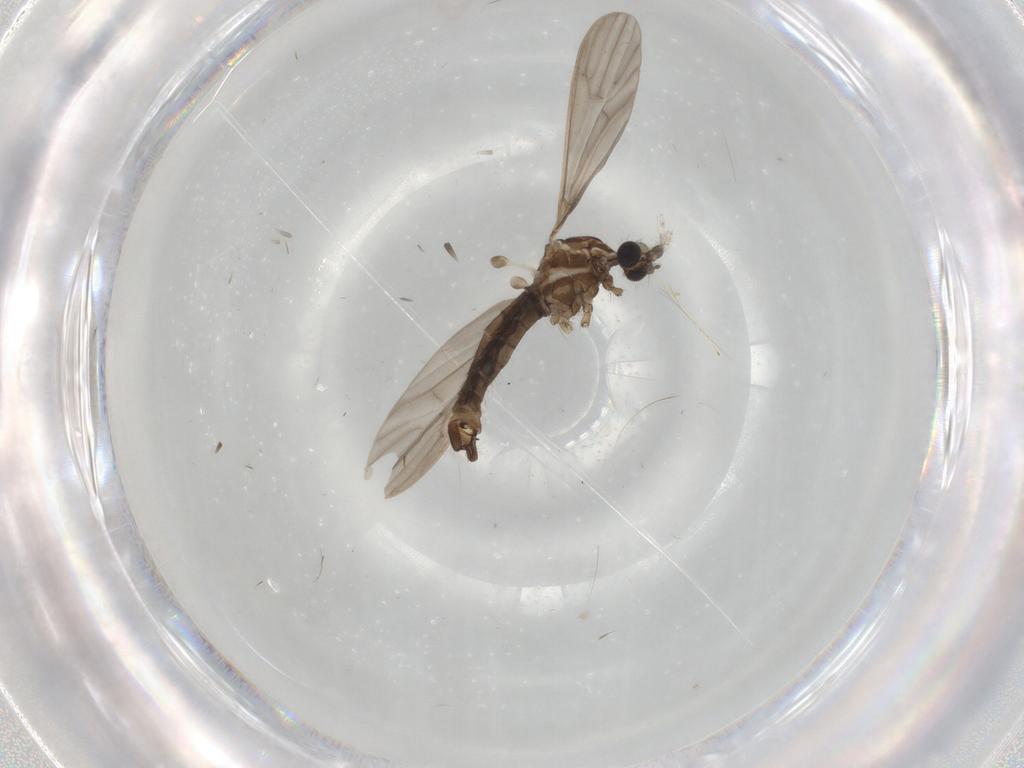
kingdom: Animalia
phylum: Arthropoda
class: Insecta
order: Diptera
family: Limoniidae
